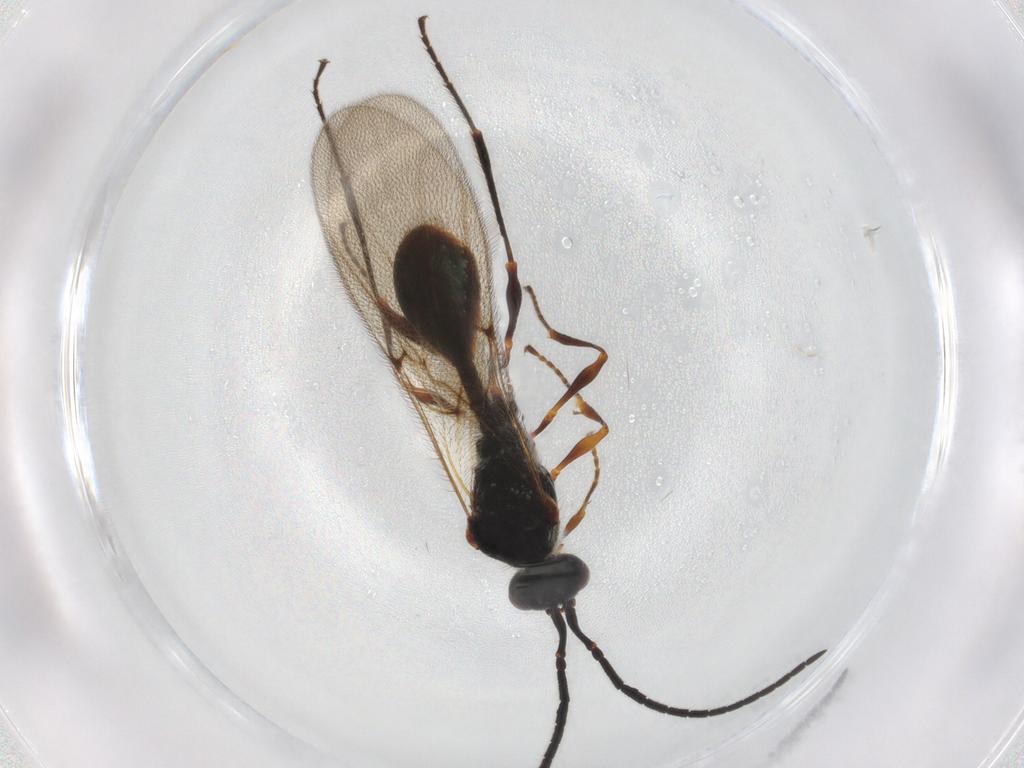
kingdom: Animalia
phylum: Arthropoda
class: Insecta
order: Hymenoptera
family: Diapriidae
